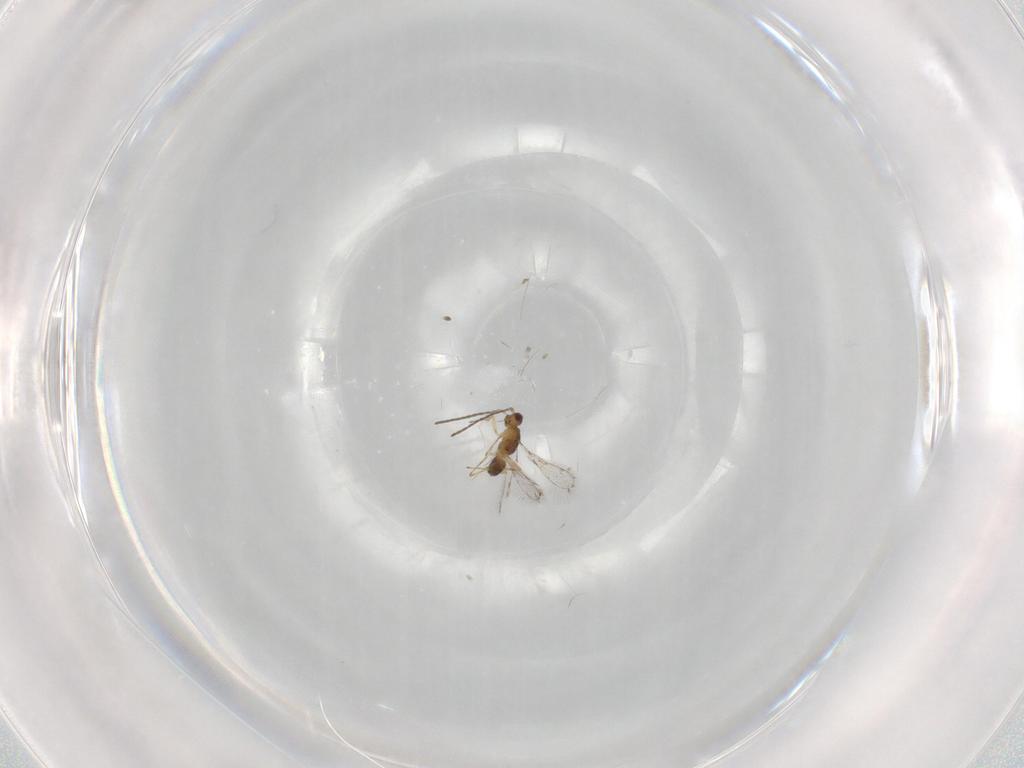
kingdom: Animalia
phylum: Arthropoda
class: Insecta
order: Hymenoptera
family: Mymaridae
